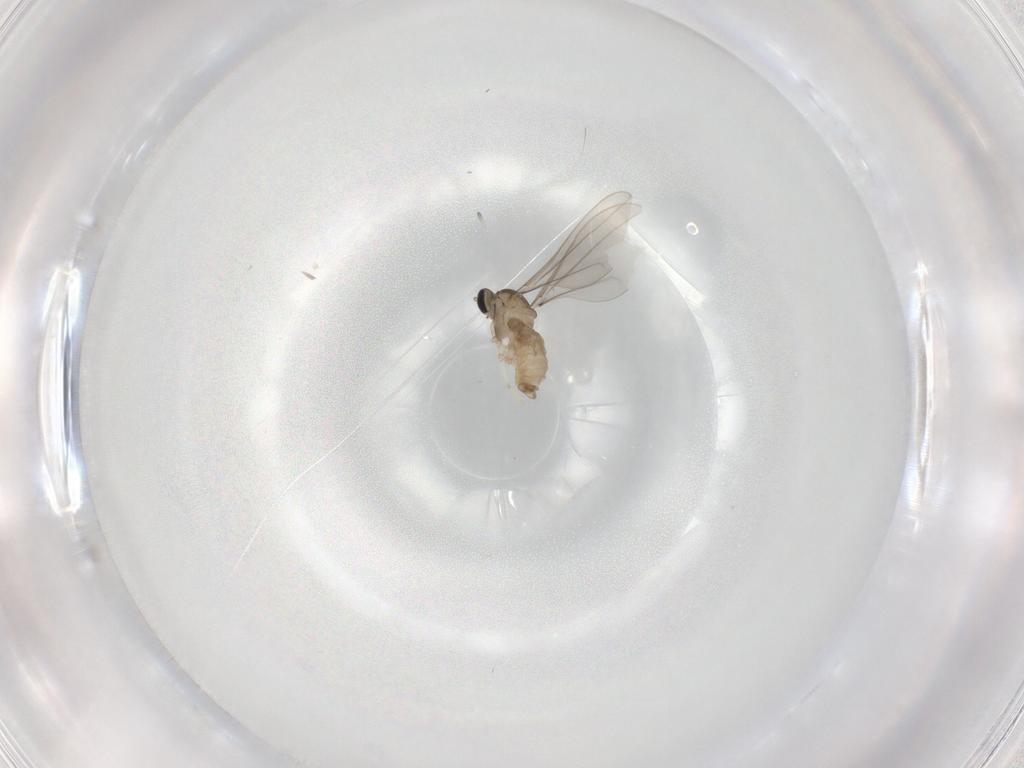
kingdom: Animalia
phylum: Arthropoda
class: Insecta
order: Diptera
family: Cecidomyiidae
